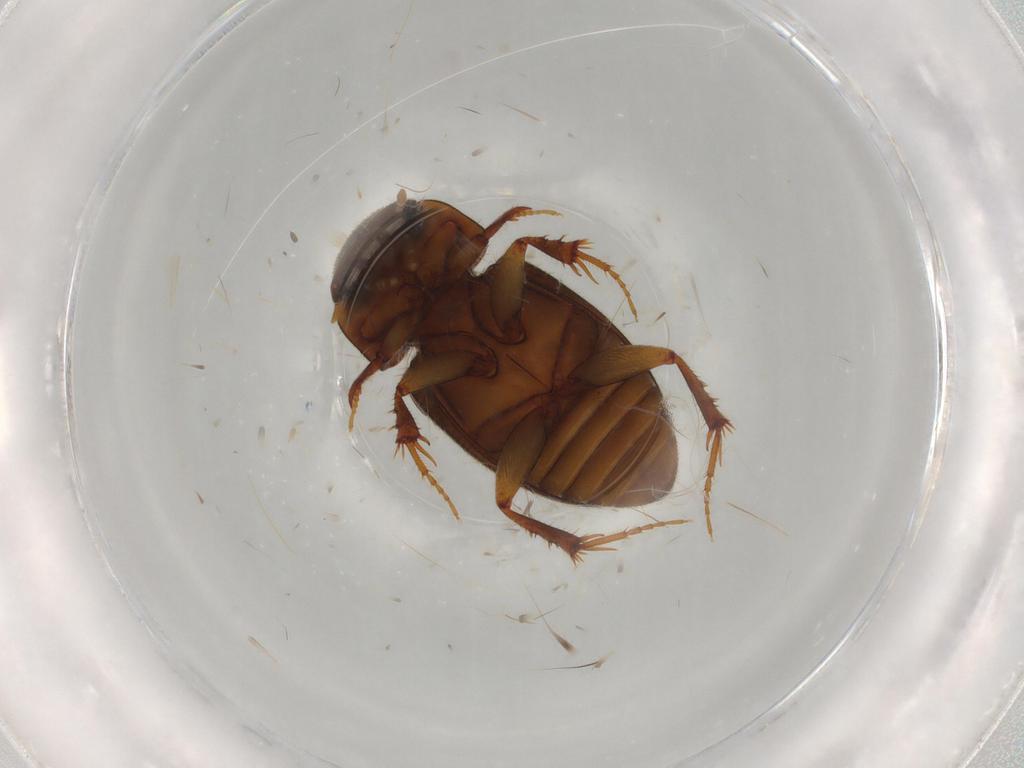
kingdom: Animalia
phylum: Arthropoda
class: Insecta
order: Coleoptera
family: Scarabaeidae
